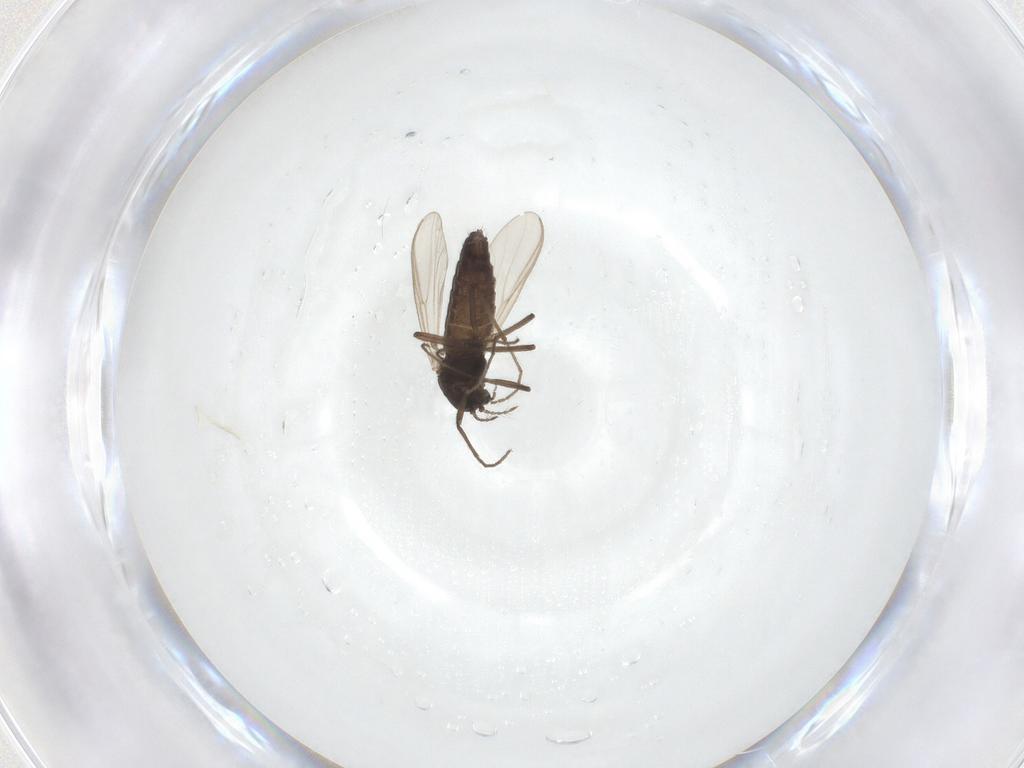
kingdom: Animalia
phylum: Arthropoda
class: Insecta
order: Diptera
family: Chironomidae
